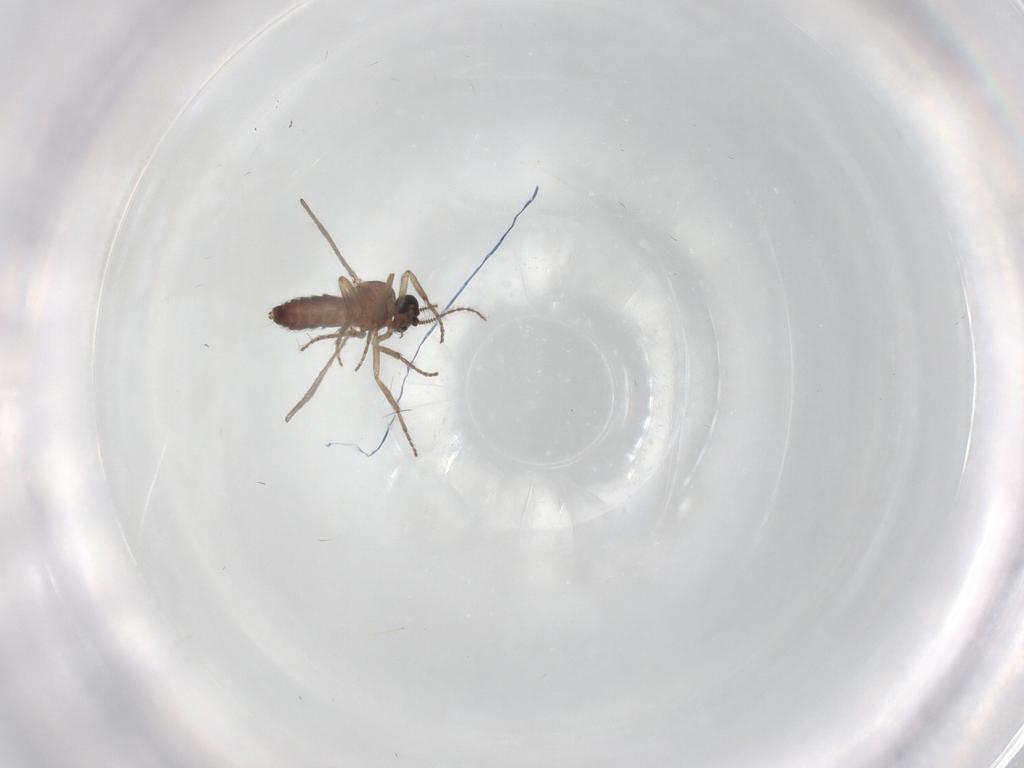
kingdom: Animalia
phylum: Arthropoda
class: Insecta
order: Diptera
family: Ceratopogonidae
